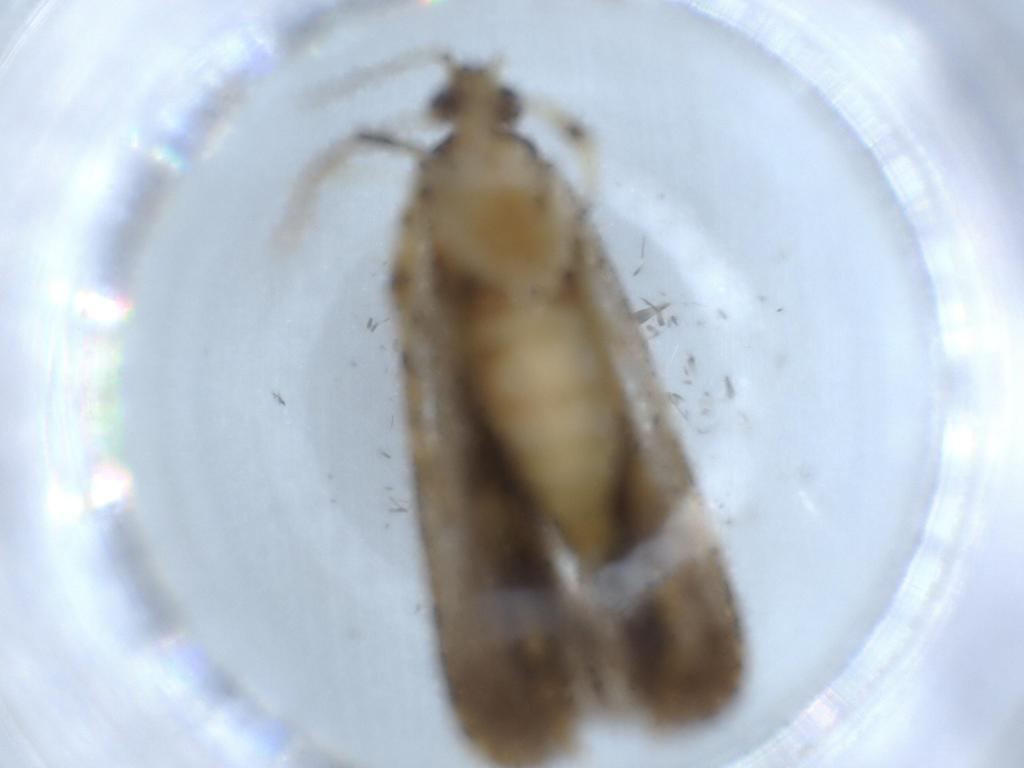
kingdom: Animalia
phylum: Arthropoda
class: Insecta
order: Lepidoptera
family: Oecophoridae
